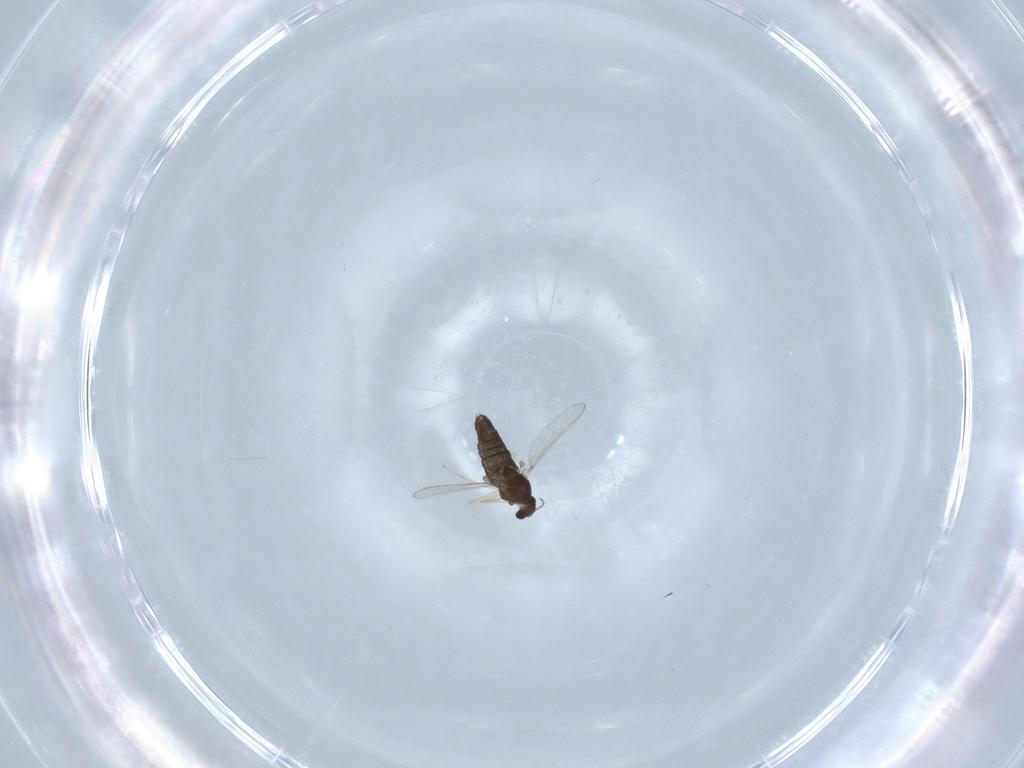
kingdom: Animalia
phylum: Arthropoda
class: Insecta
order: Diptera
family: Chironomidae
